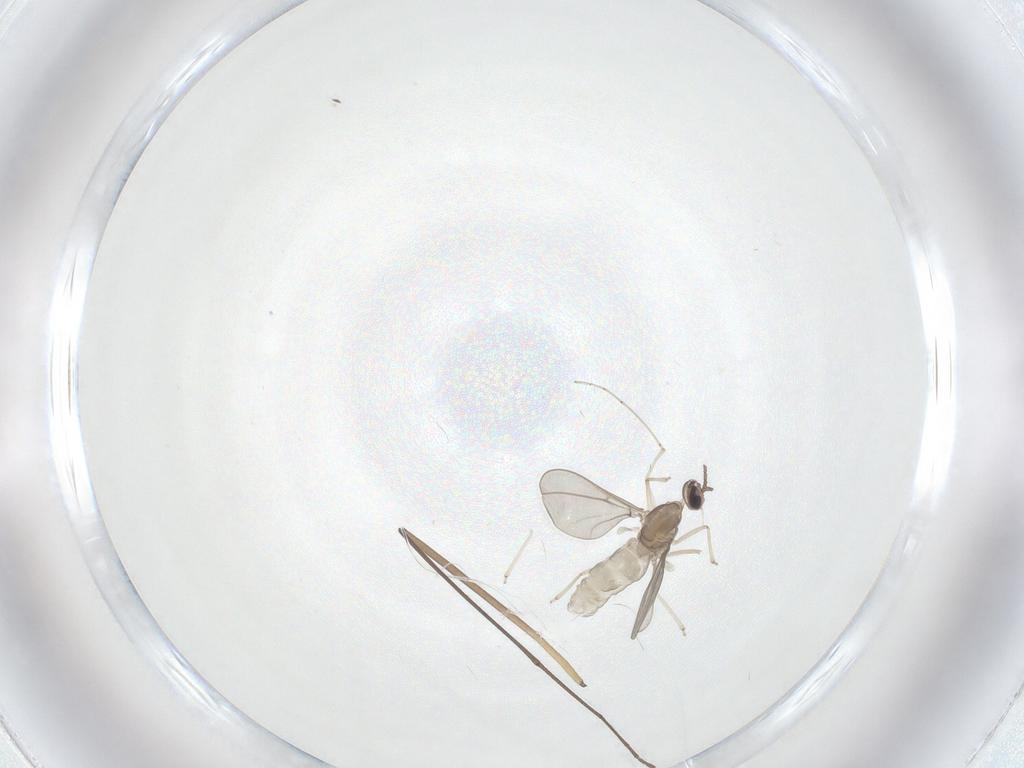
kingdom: Animalia
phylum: Arthropoda
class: Insecta
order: Diptera
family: Cecidomyiidae
